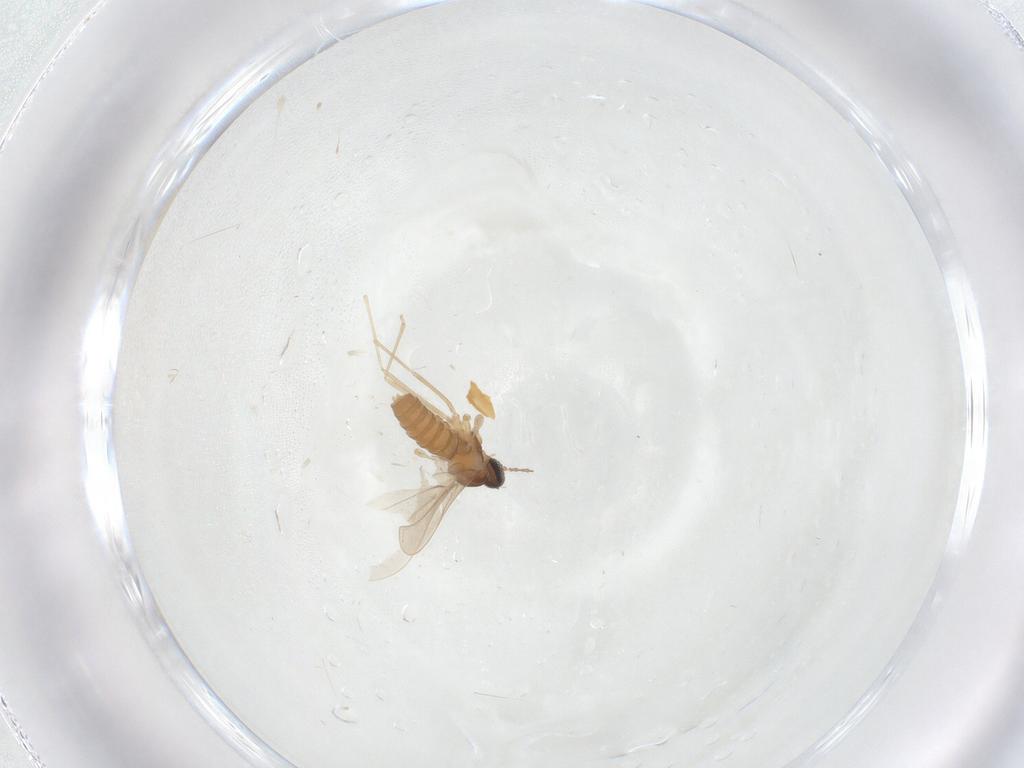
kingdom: Animalia
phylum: Arthropoda
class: Insecta
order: Diptera
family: Cecidomyiidae
